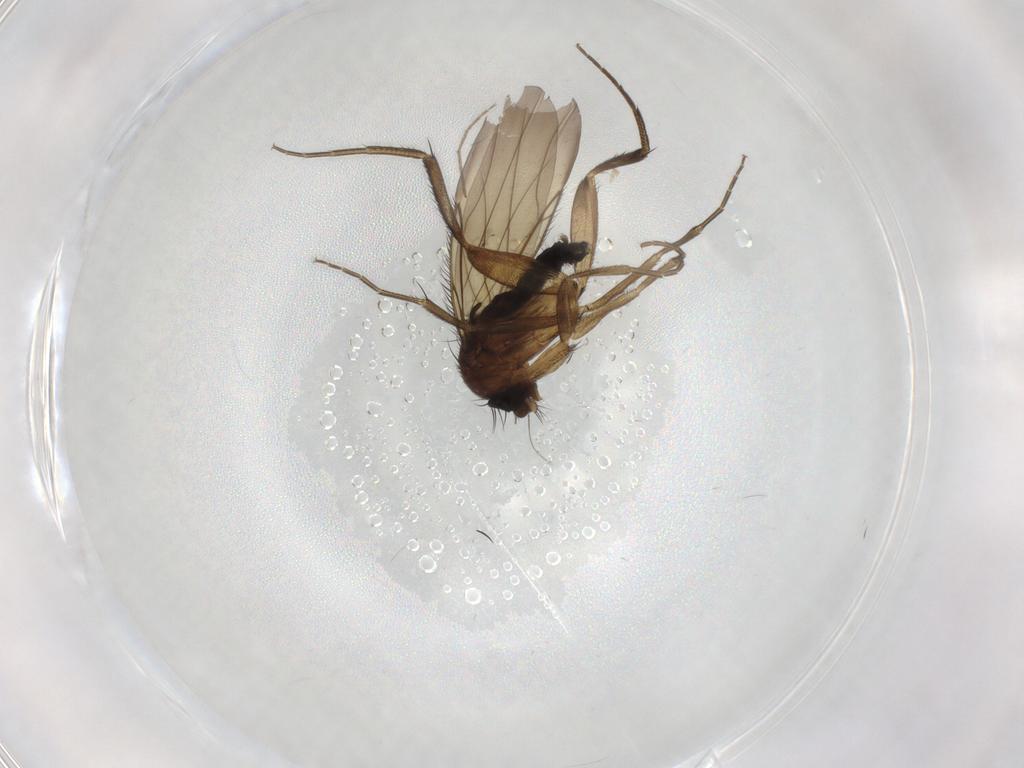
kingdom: Animalia
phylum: Arthropoda
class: Insecta
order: Diptera
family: Phoridae
